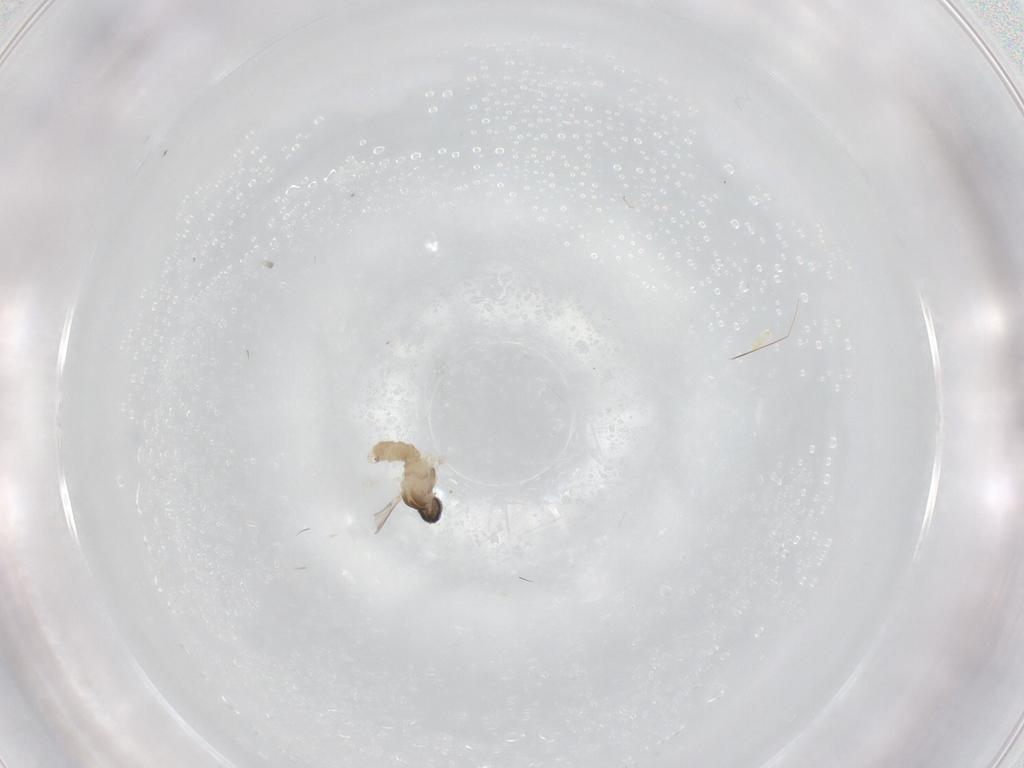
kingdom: Animalia
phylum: Arthropoda
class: Insecta
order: Diptera
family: Cecidomyiidae
